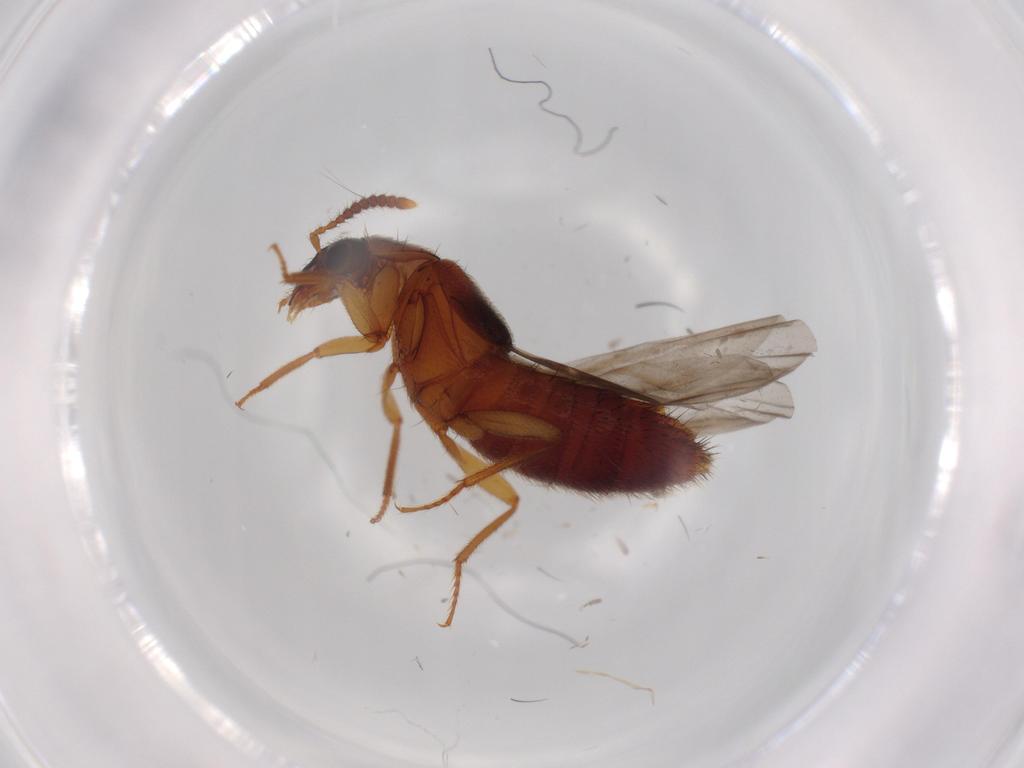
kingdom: Animalia
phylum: Arthropoda
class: Insecta
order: Coleoptera
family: Staphylinidae
